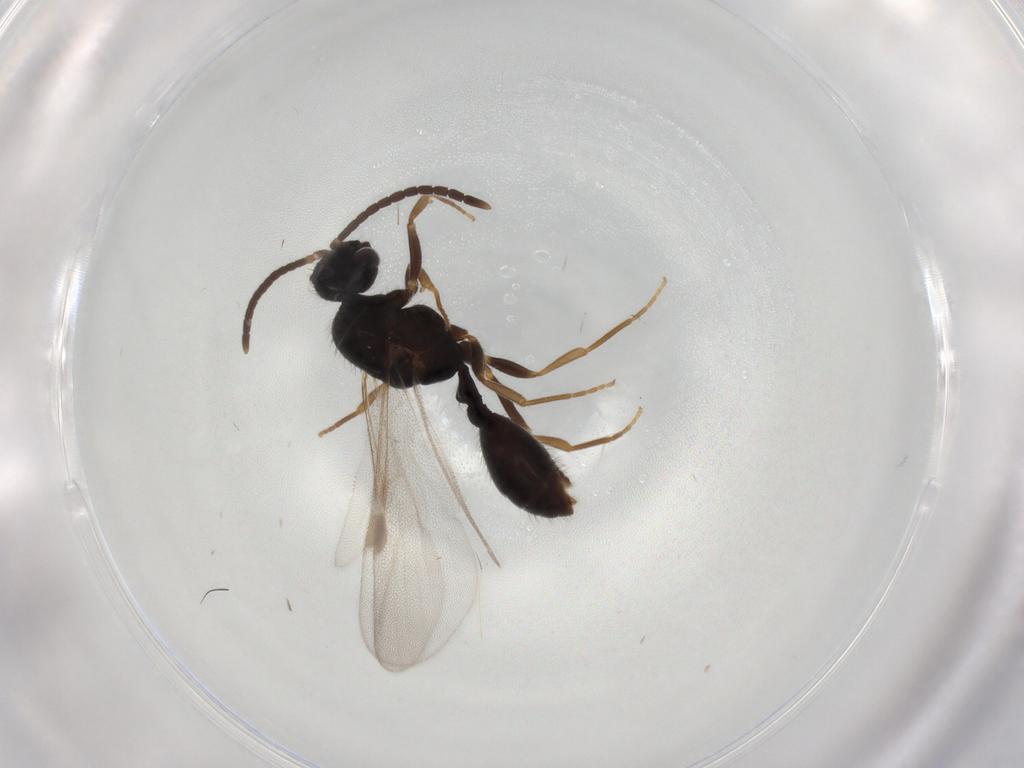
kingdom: Animalia
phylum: Arthropoda
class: Insecta
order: Hymenoptera
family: Formicidae
